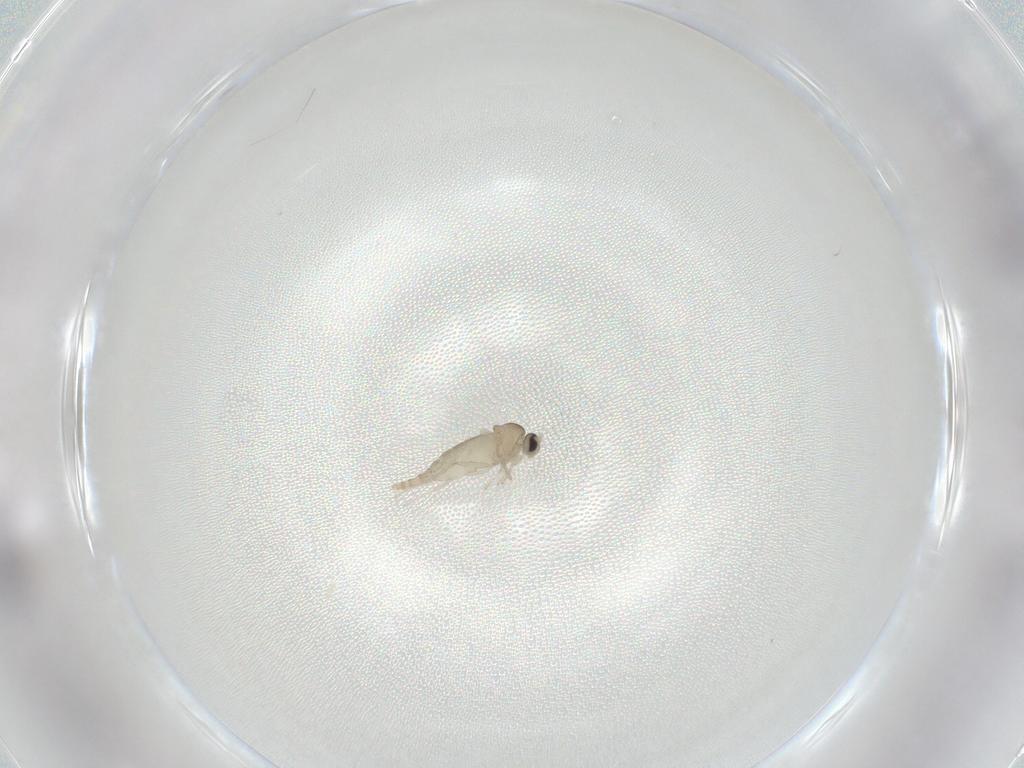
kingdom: Animalia
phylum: Arthropoda
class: Insecta
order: Diptera
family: Cecidomyiidae
